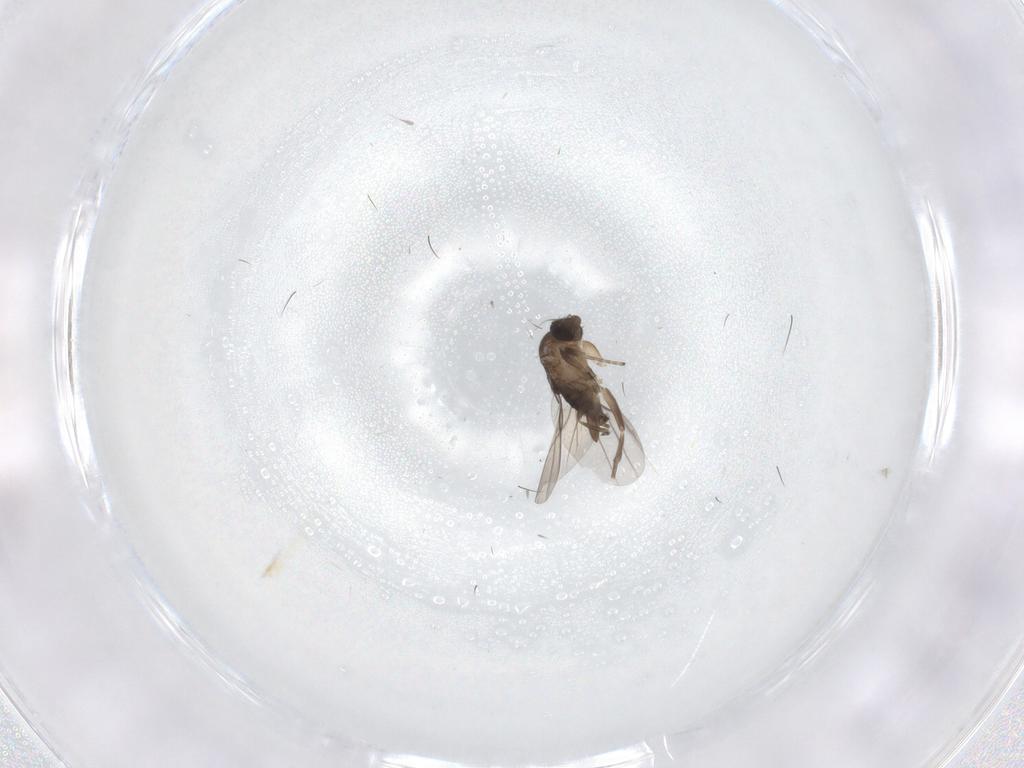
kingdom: Animalia
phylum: Arthropoda
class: Insecta
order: Diptera
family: Phoridae
